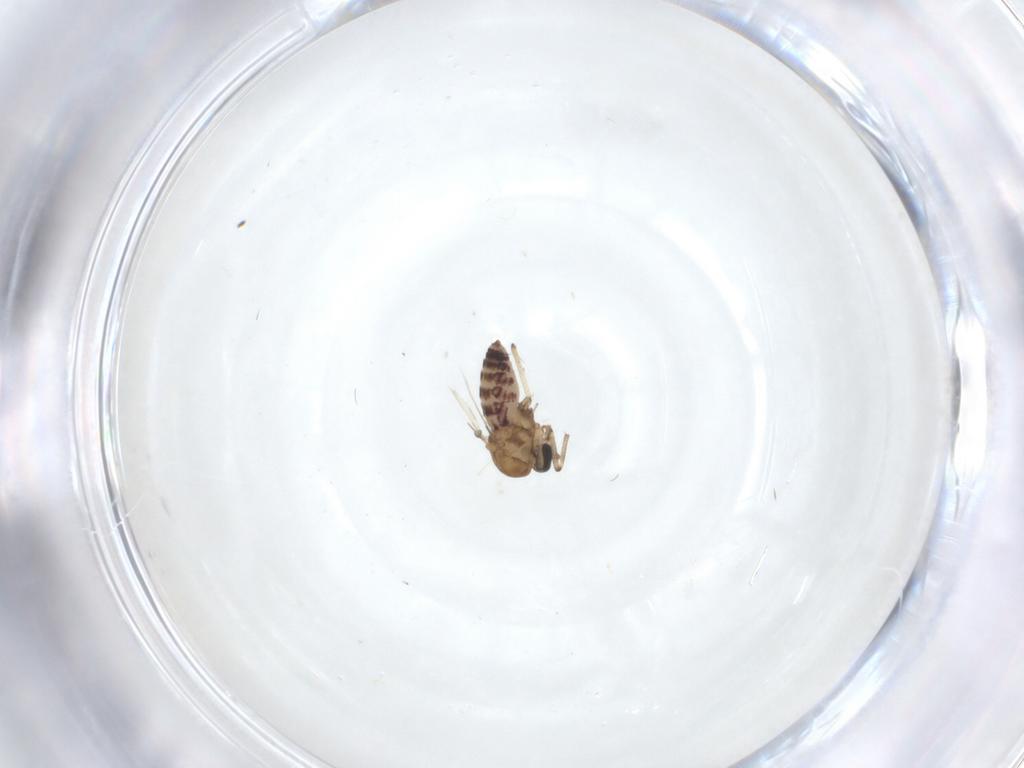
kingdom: Animalia
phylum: Arthropoda
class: Insecta
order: Diptera
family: Ceratopogonidae
